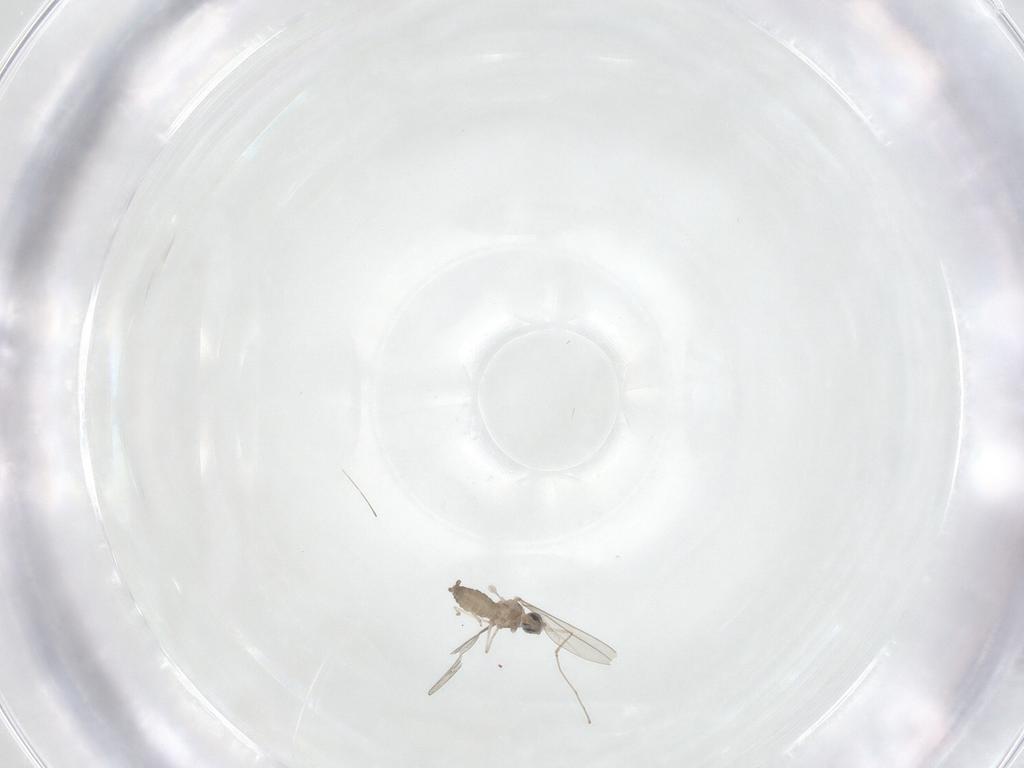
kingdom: Animalia
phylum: Arthropoda
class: Insecta
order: Diptera
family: Cecidomyiidae
